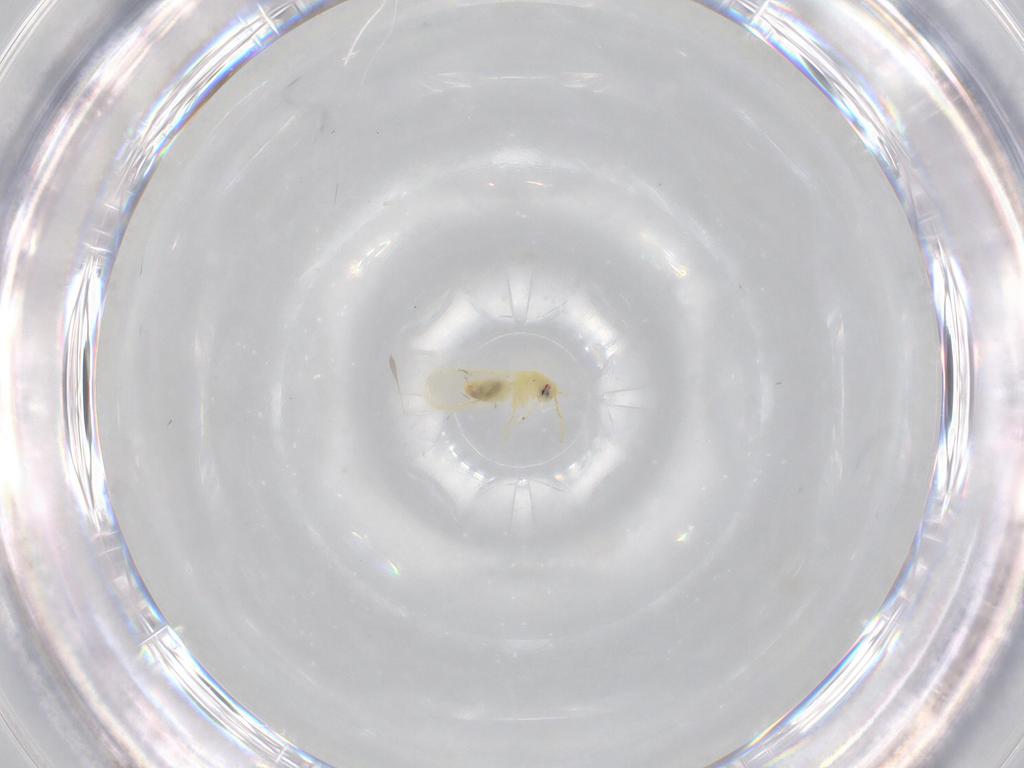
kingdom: Animalia
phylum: Arthropoda
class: Insecta
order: Hemiptera
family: Aleyrodidae
